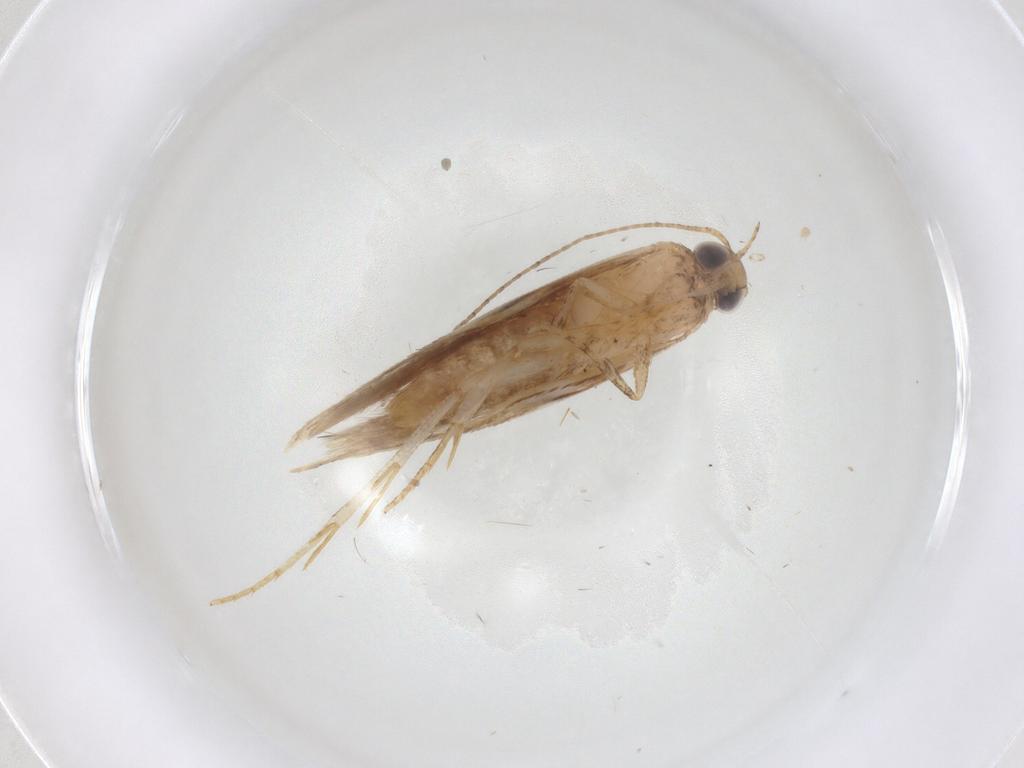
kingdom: Animalia
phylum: Arthropoda
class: Insecta
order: Lepidoptera
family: Gelechiidae
